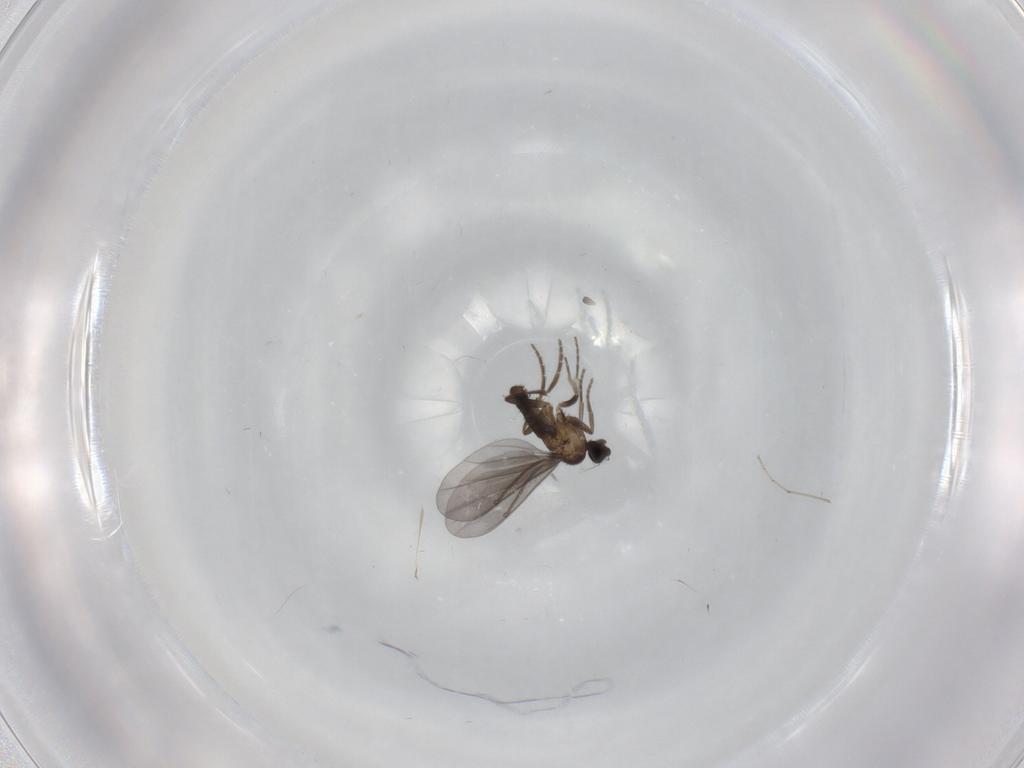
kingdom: Animalia
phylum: Arthropoda
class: Insecta
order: Diptera
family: Phoridae
